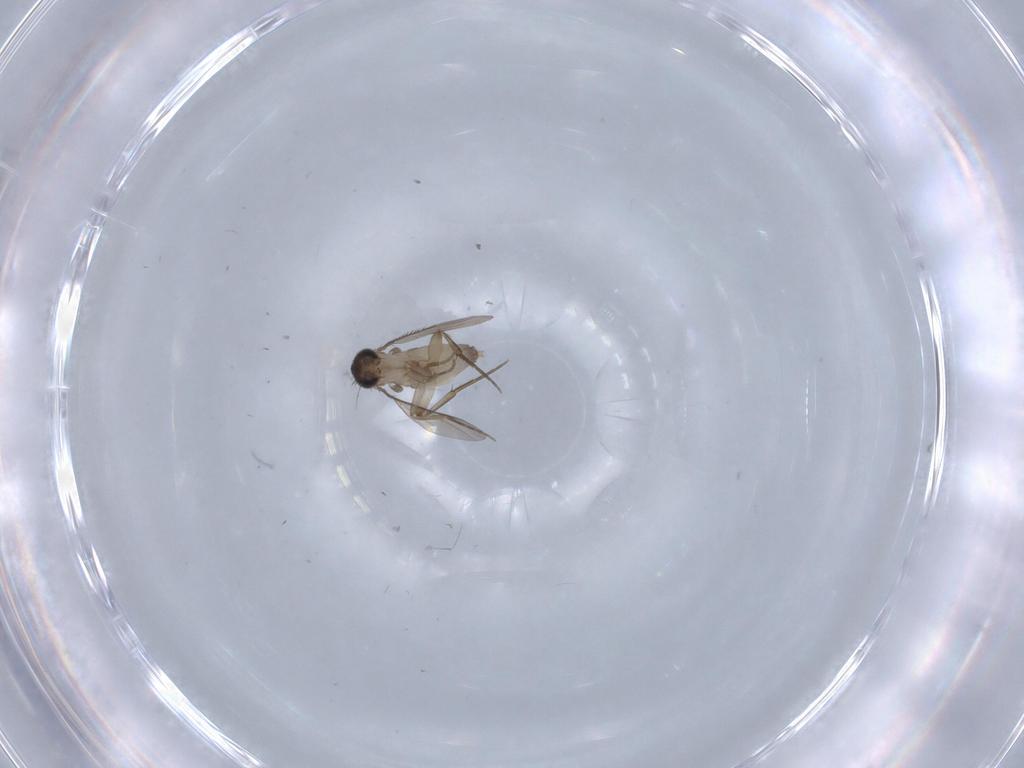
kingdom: Animalia
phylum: Arthropoda
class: Insecta
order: Diptera
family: Phoridae
